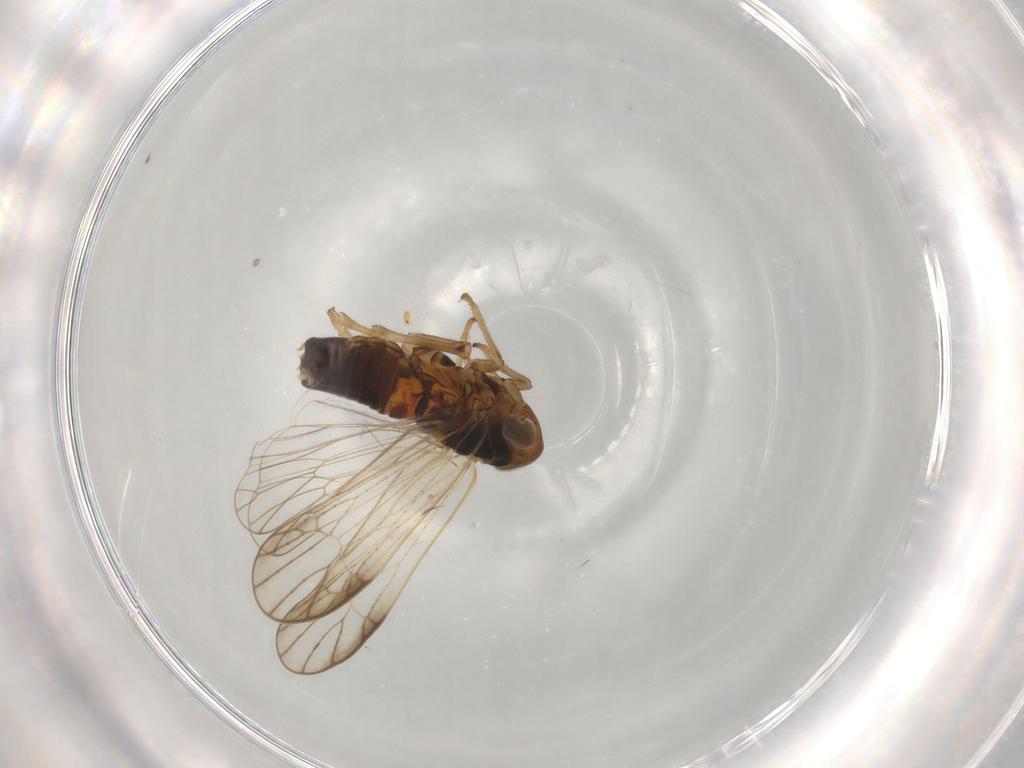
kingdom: Animalia
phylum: Arthropoda
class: Insecta
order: Hemiptera
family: Delphacidae
